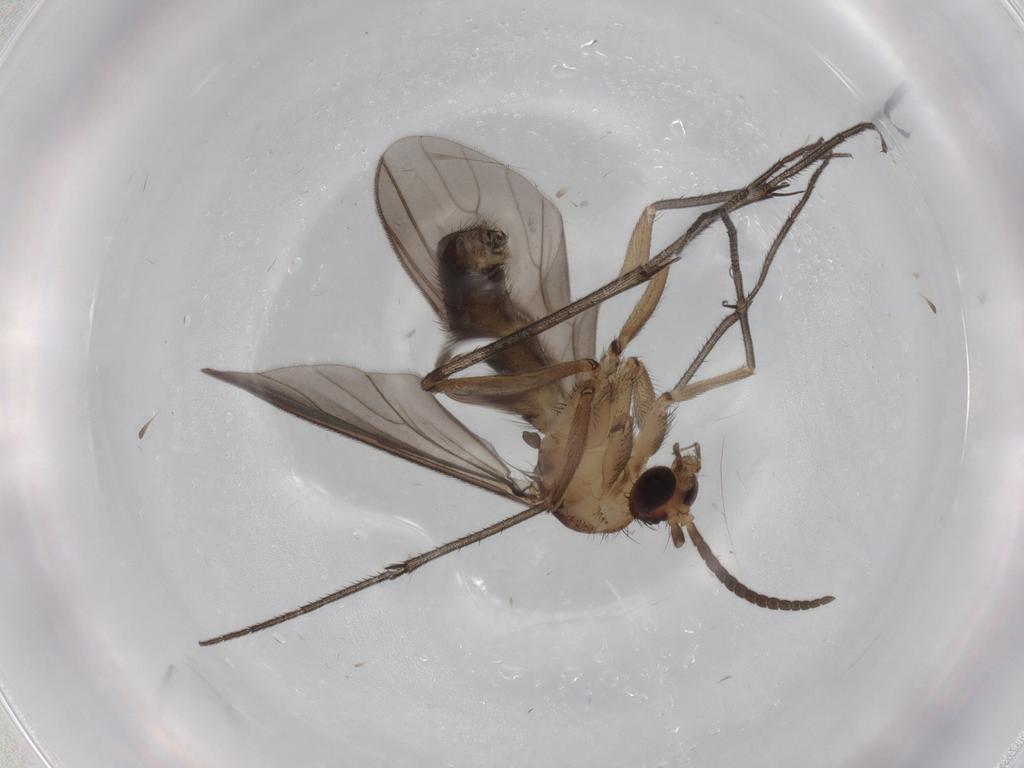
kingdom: Animalia
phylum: Arthropoda
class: Insecta
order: Diptera
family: Mycetophilidae
